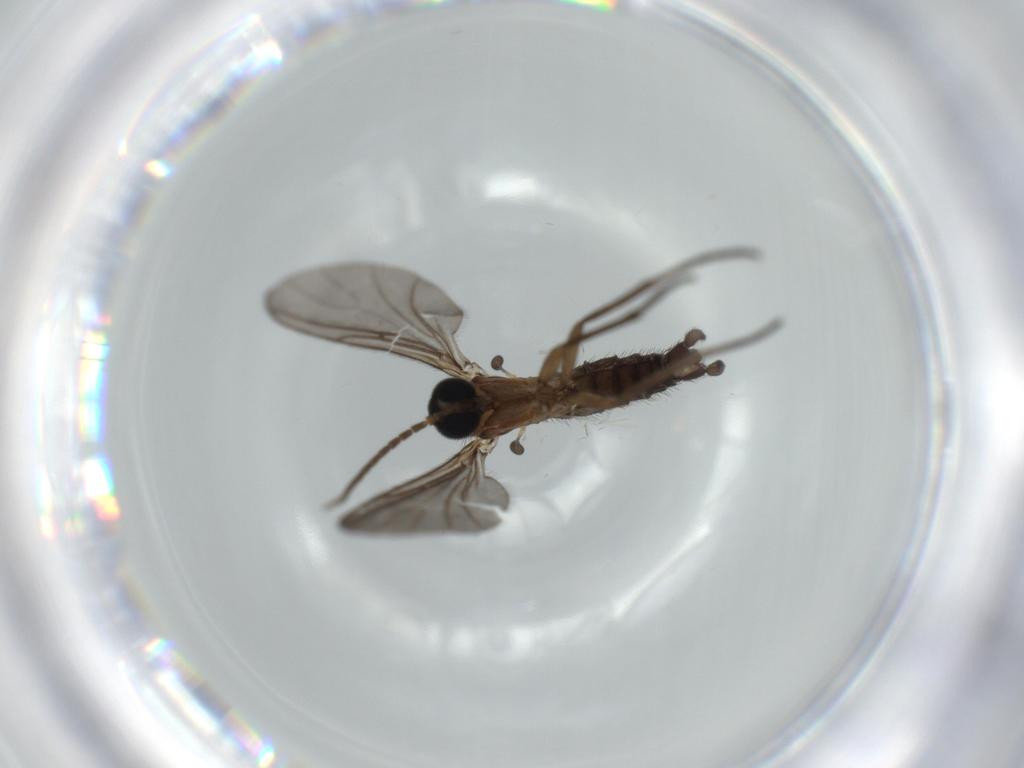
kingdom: Animalia
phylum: Arthropoda
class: Insecta
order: Diptera
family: Sciaridae
